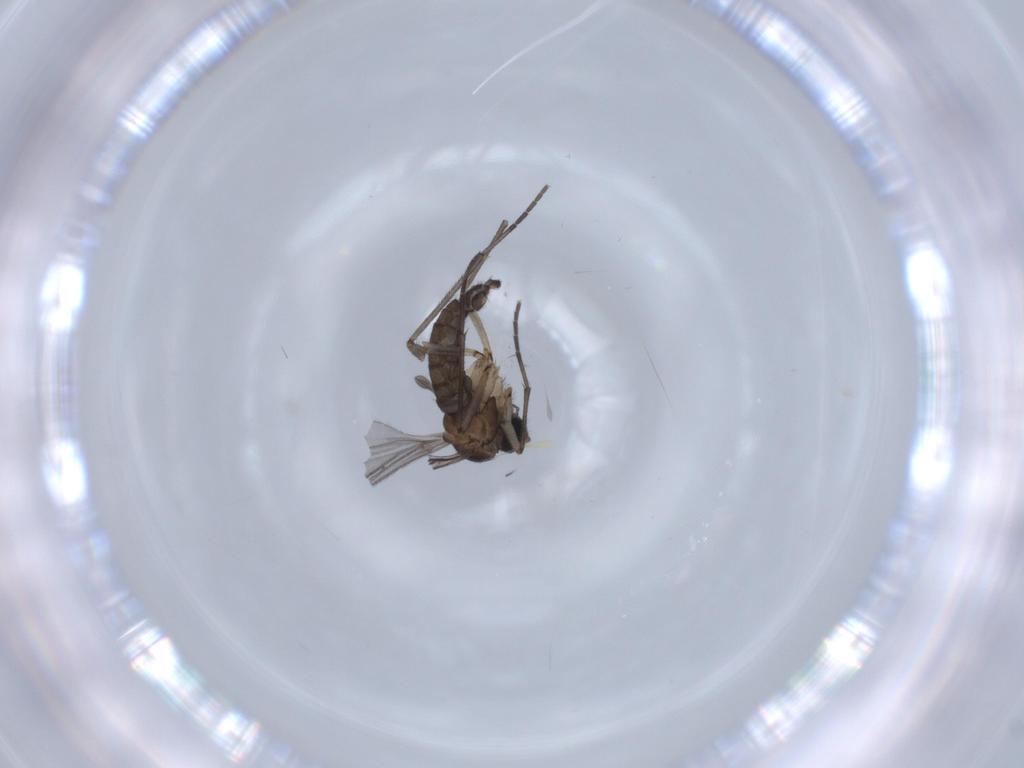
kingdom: Animalia
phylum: Arthropoda
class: Insecta
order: Diptera
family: Sciaridae
